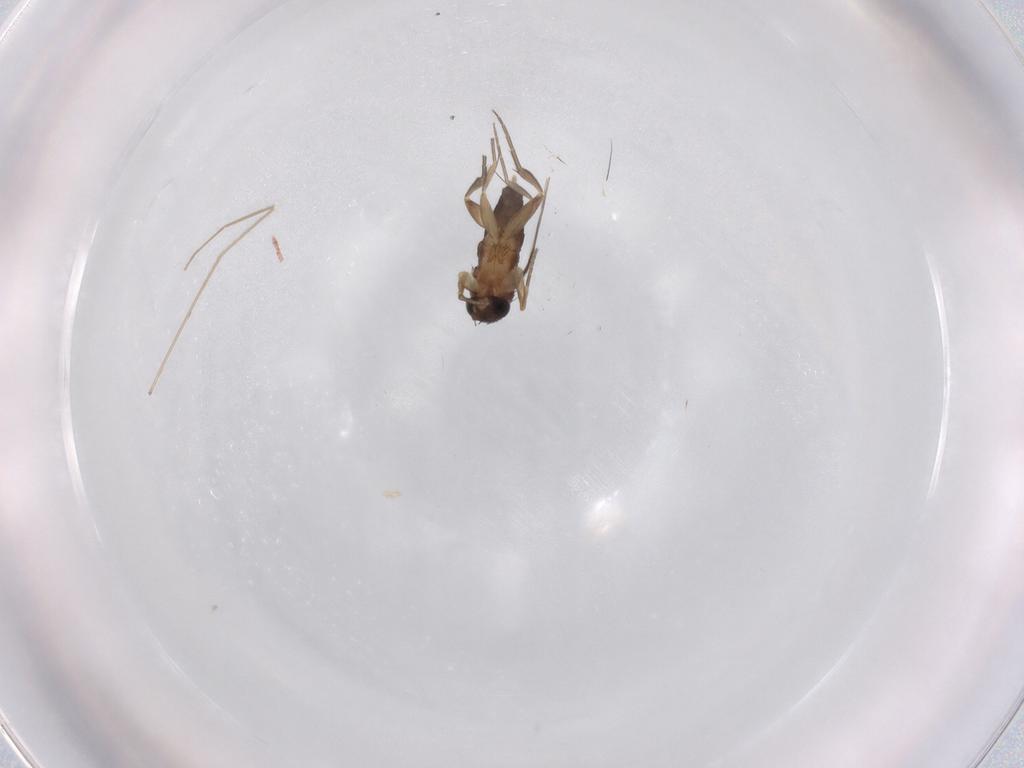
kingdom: Animalia
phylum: Arthropoda
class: Insecta
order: Diptera
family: Phoridae
